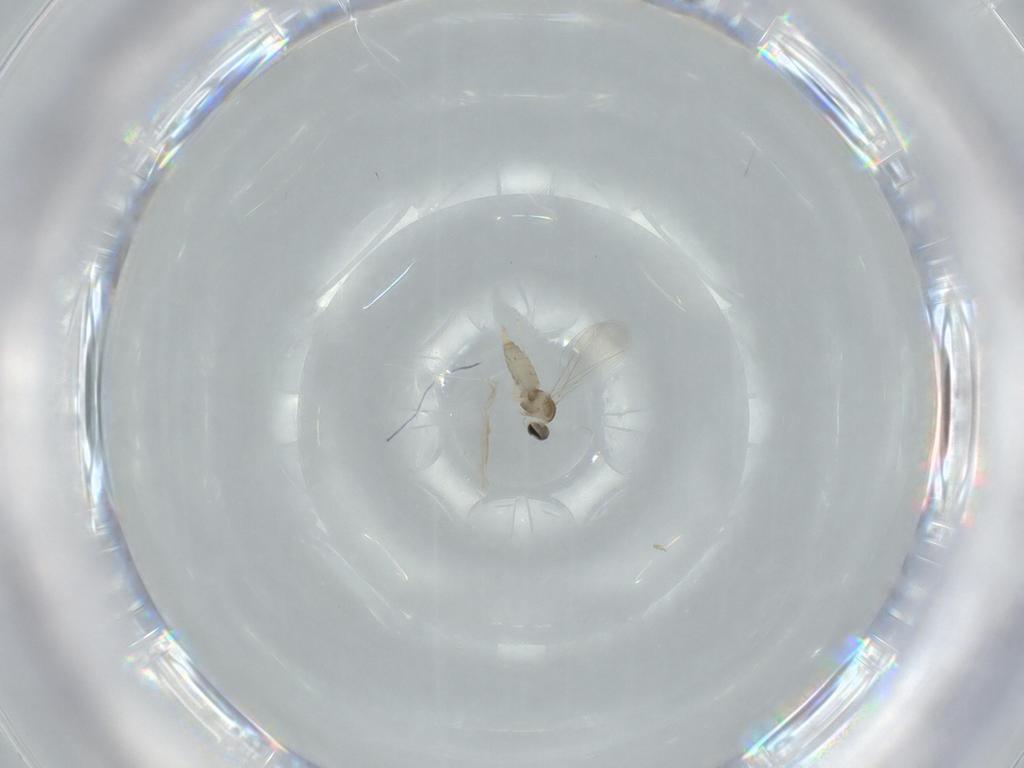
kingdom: Animalia
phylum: Arthropoda
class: Insecta
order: Diptera
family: Cecidomyiidae
